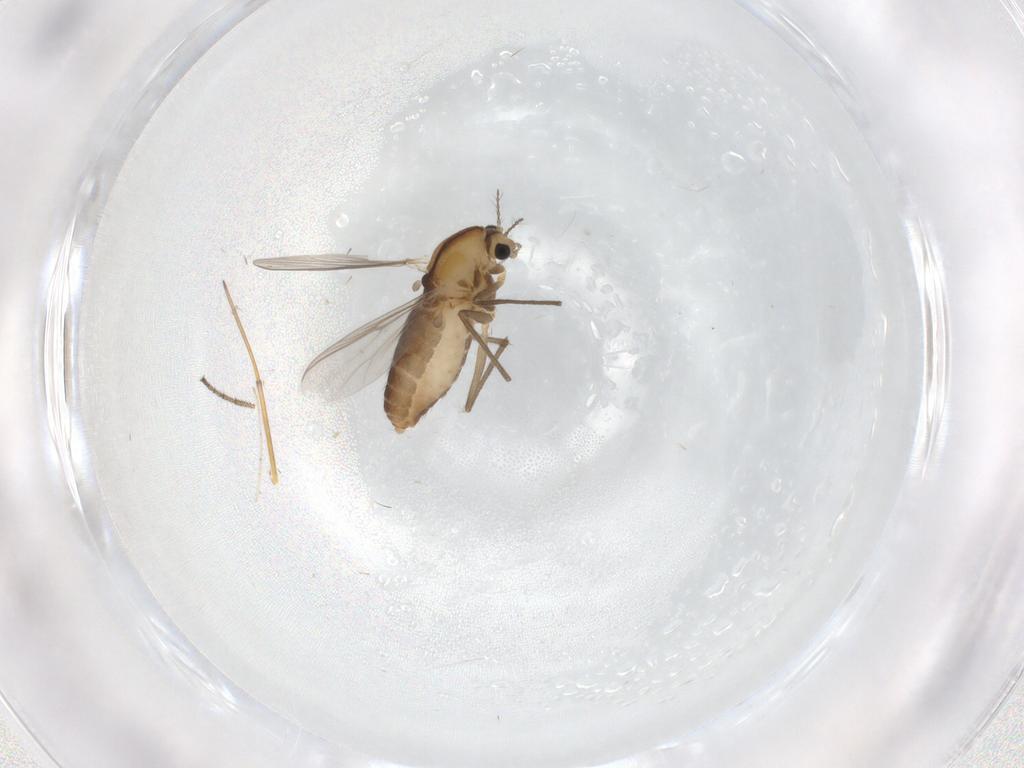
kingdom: Animalia
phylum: Arthropoda
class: Insecta
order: Diptera
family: Chironomidae
